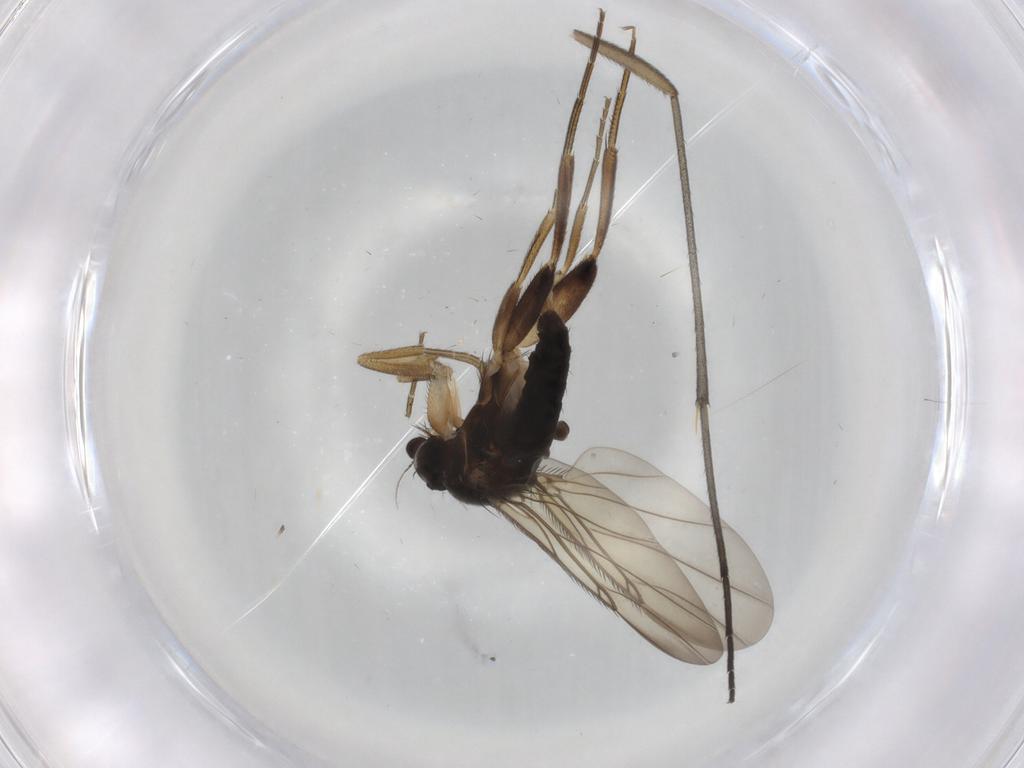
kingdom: Animalia
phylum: Arthropoda
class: Insecta
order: Diptera
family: Phoridae
